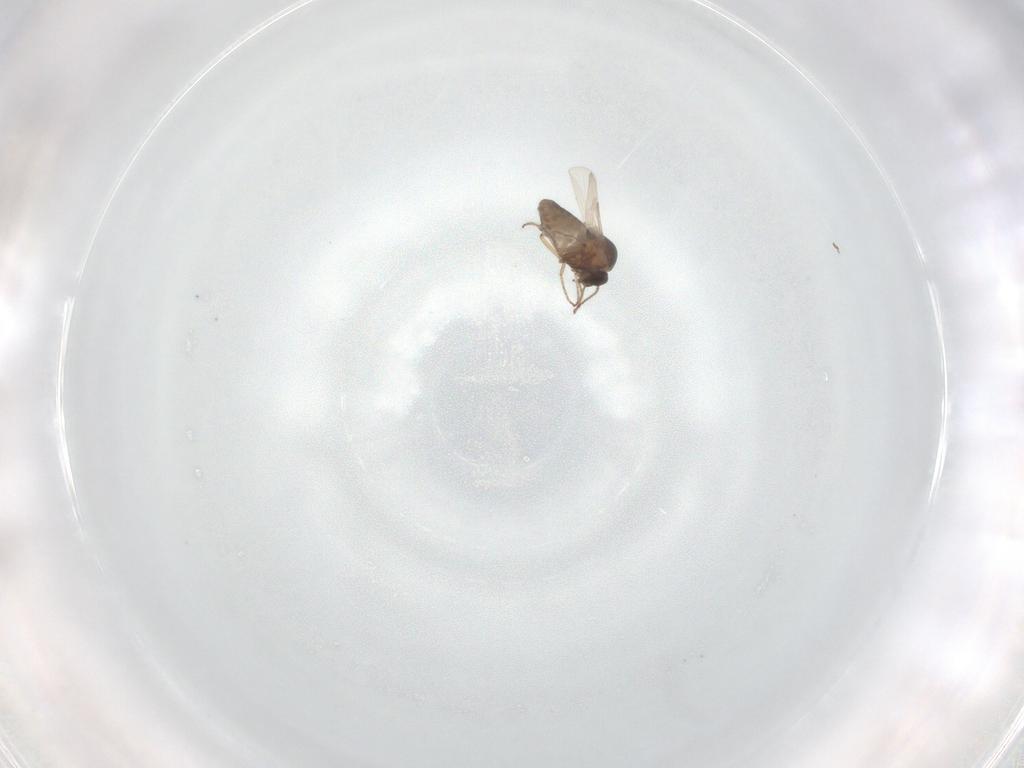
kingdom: Animalia
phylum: Arthropoda
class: Insecta
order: Diptera
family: Ceratopogonidae
